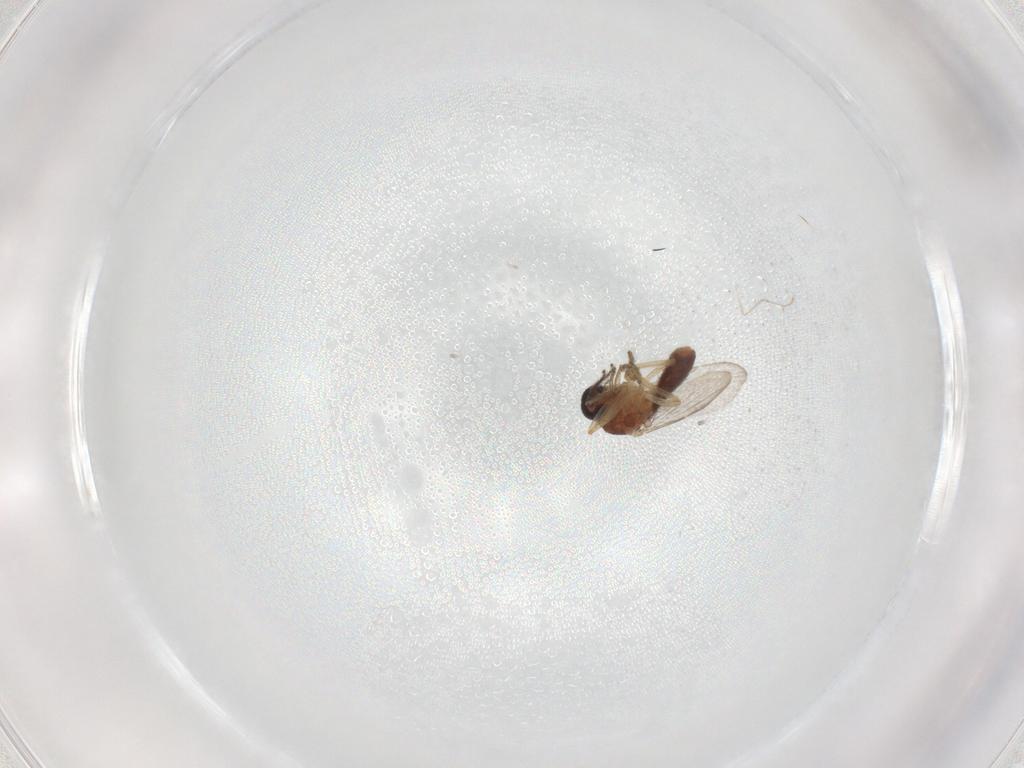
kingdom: Animalia
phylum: Arthropoda
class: Insecta
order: Diptera
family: Ceratopogonidae
